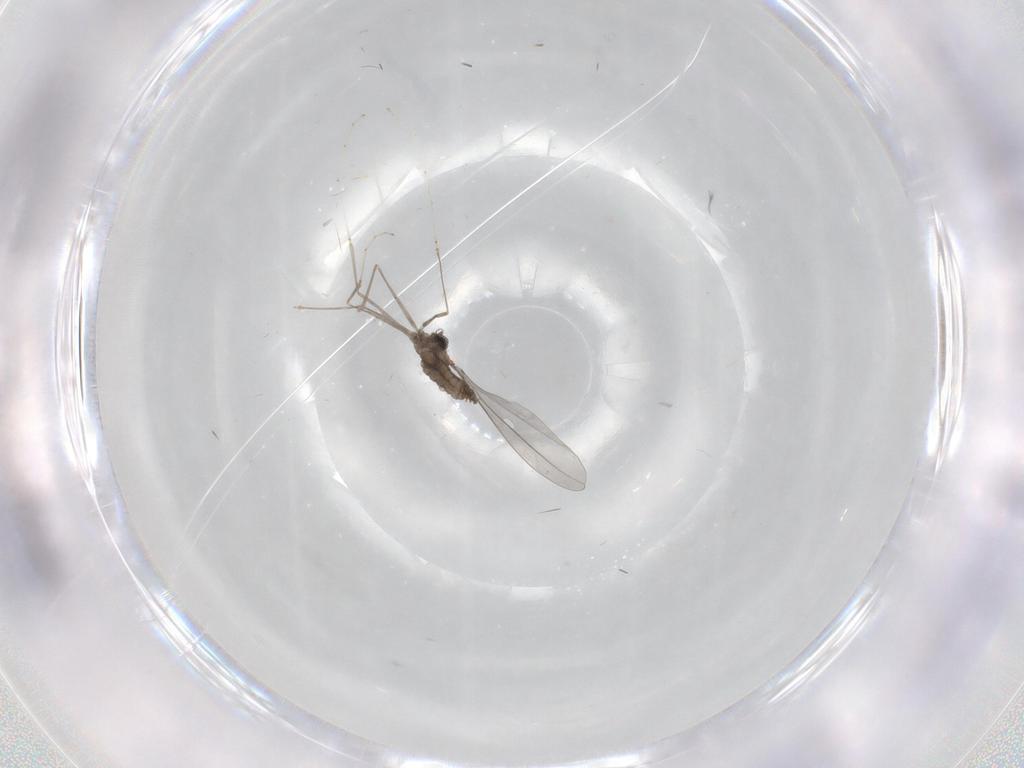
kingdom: Animalia
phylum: Arthropoda
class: Insecta
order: Diptera
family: Cecidomyiidae
